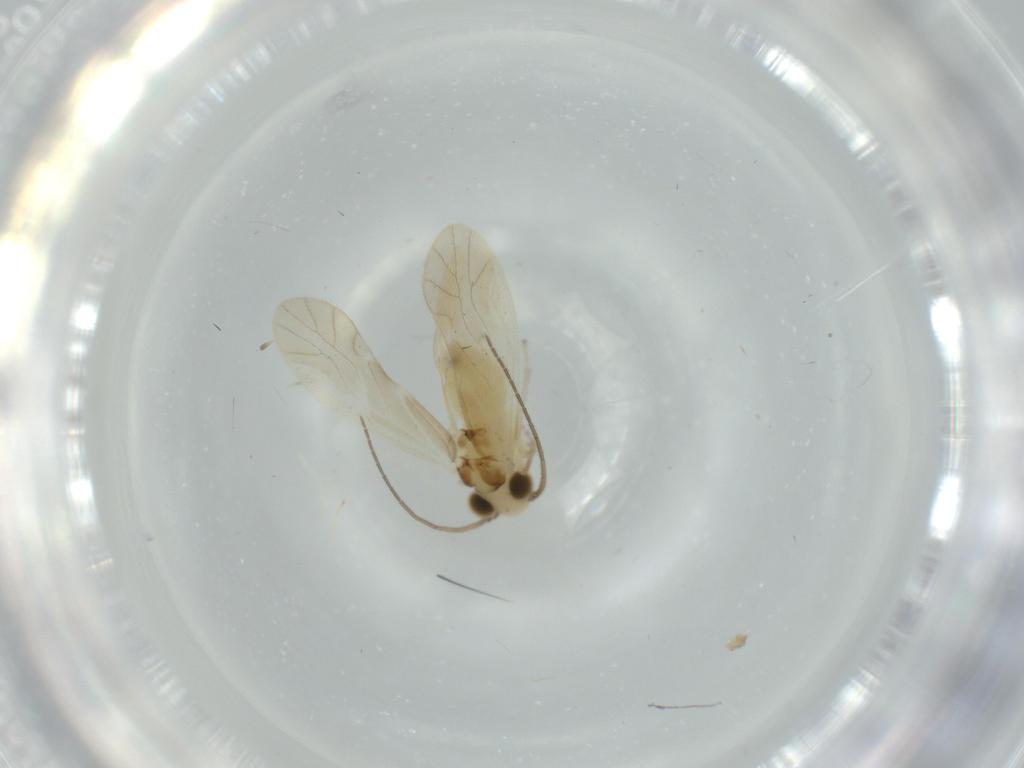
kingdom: Animalia
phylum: Arthropoda
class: Insecta
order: Psocodea
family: Caeciliusidae
